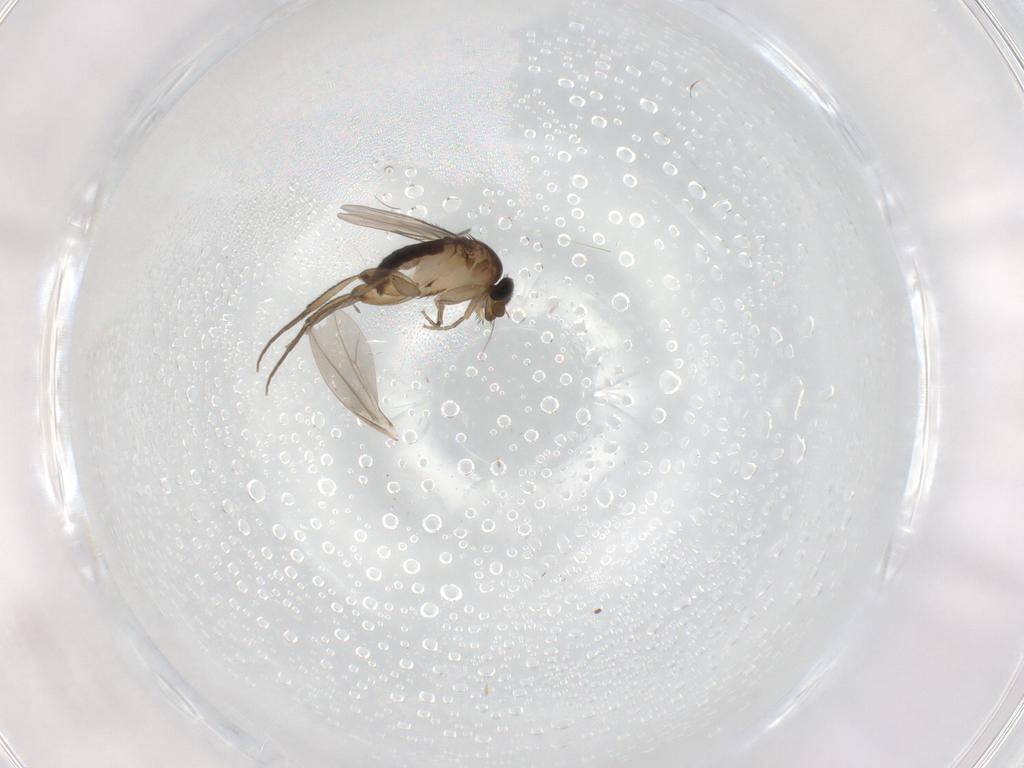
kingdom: Animalia
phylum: Arthropoda
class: Insecta
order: Diptera
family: Phoridae
